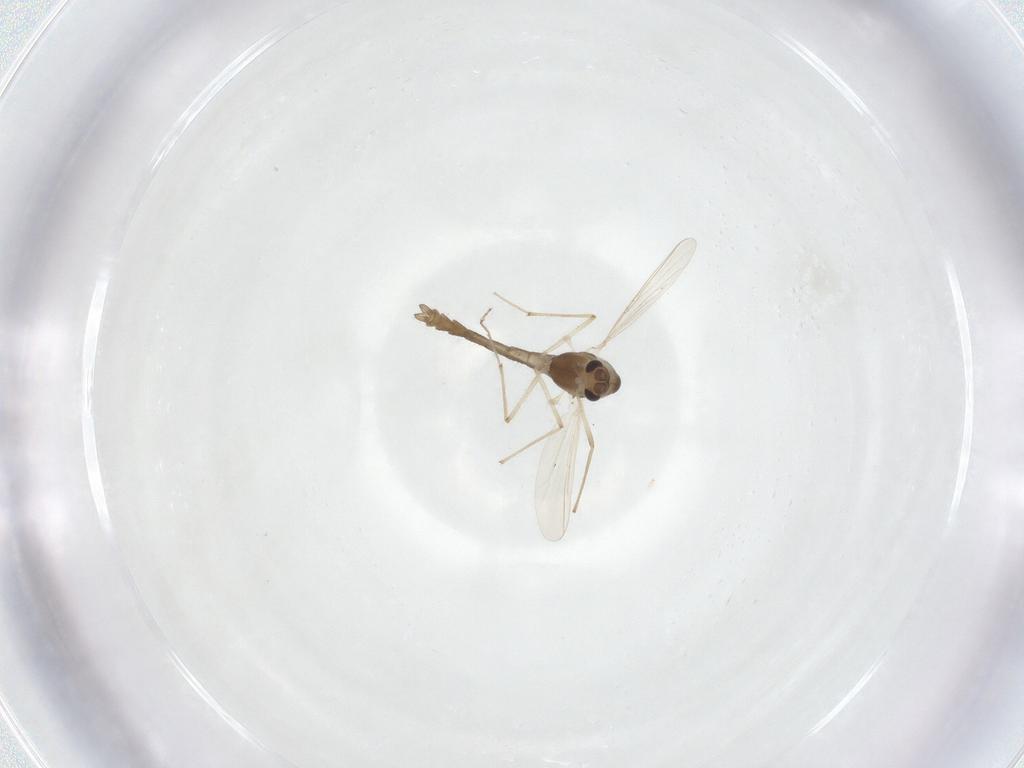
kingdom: Animalia
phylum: Arthropoda
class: Insecta
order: Diptera
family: Chironomidae
